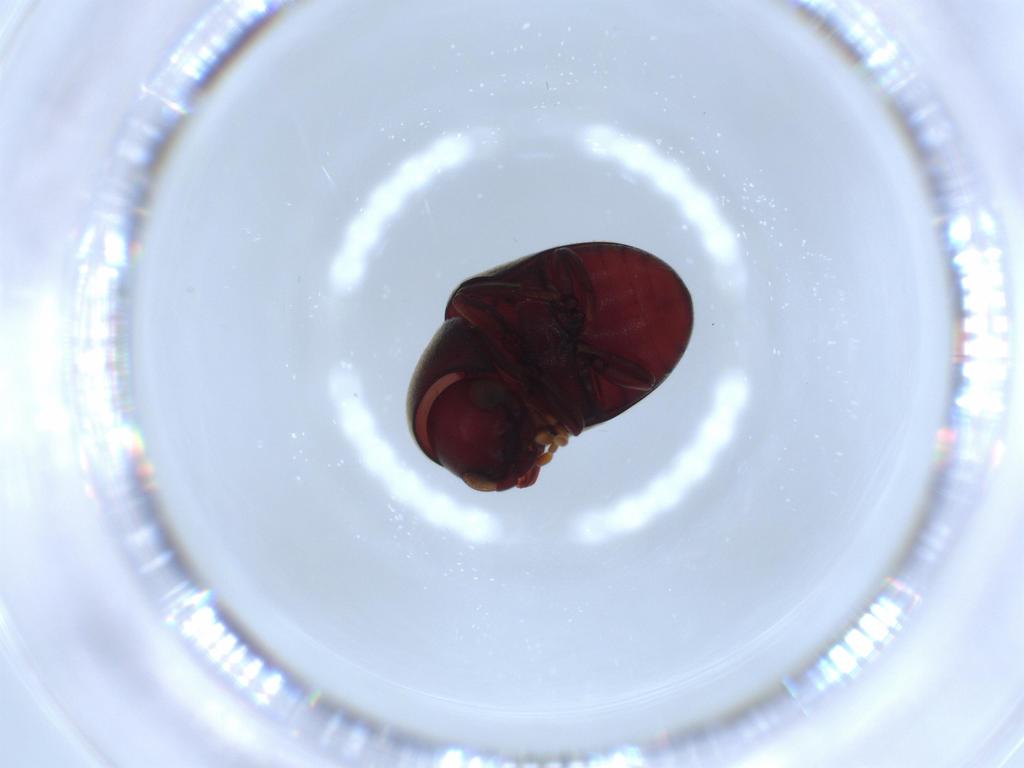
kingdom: Animalia
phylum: Arthropoda
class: Insecta
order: Coleoptera
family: Ptinidae
